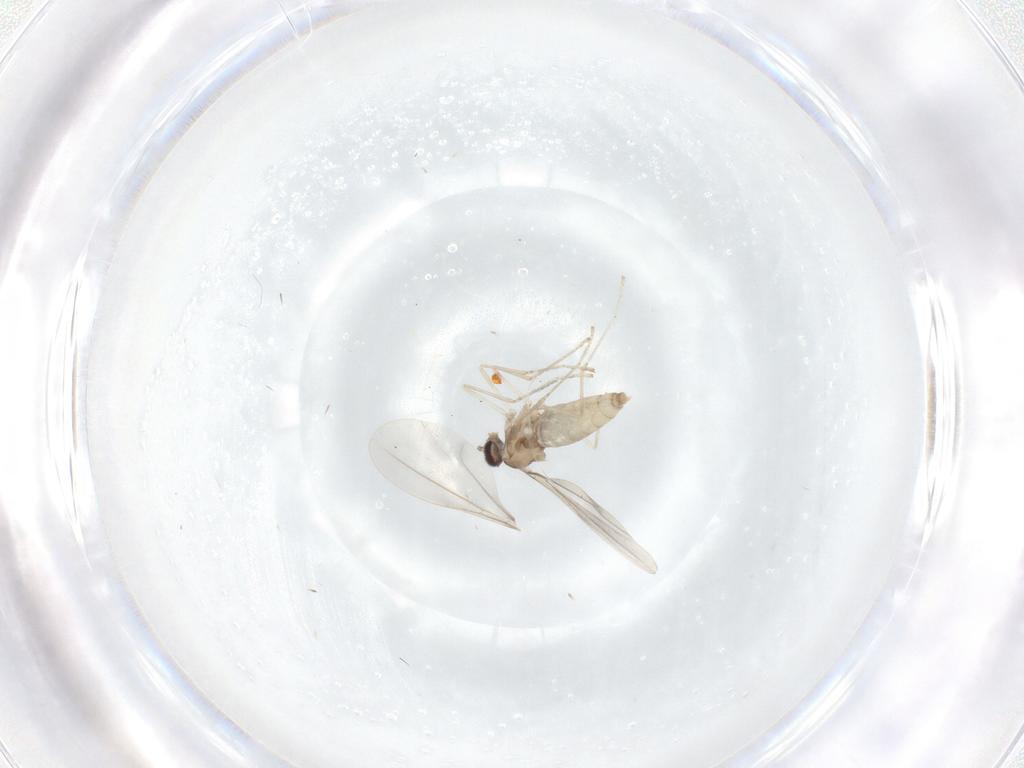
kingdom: Animalia
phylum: Arthropoda
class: Insecta
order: Diptera
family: Cecidomyiidae
